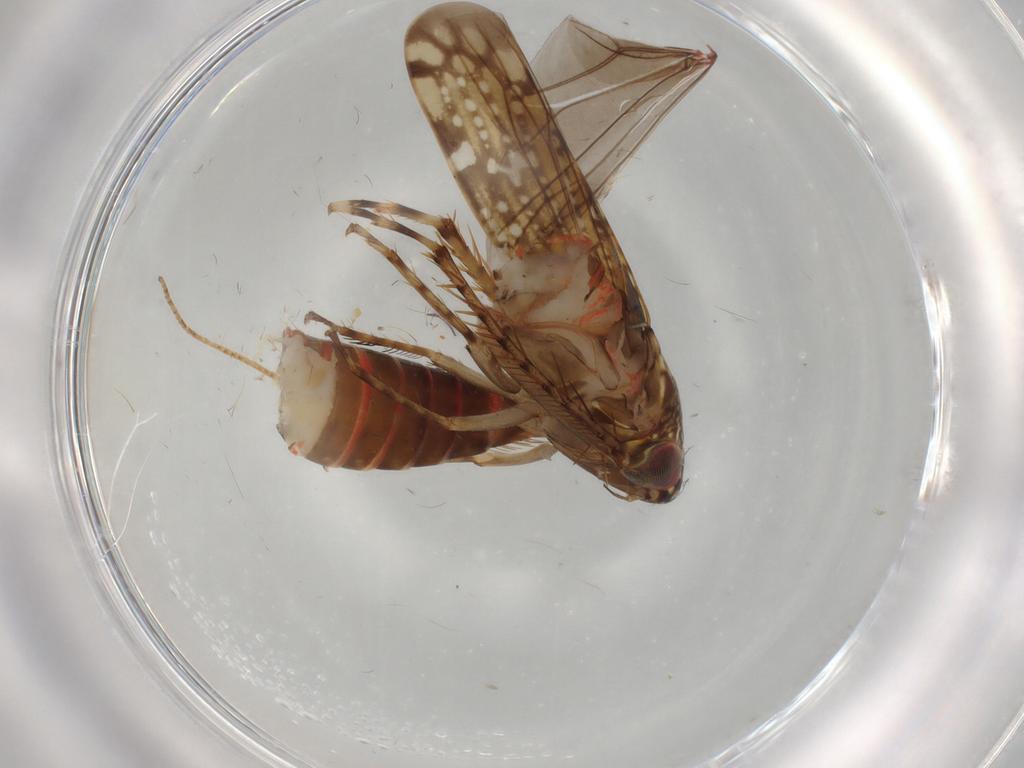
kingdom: Animalia
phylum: Arthropoda
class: Insecta
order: Hemiptera
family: Cicadellidae
